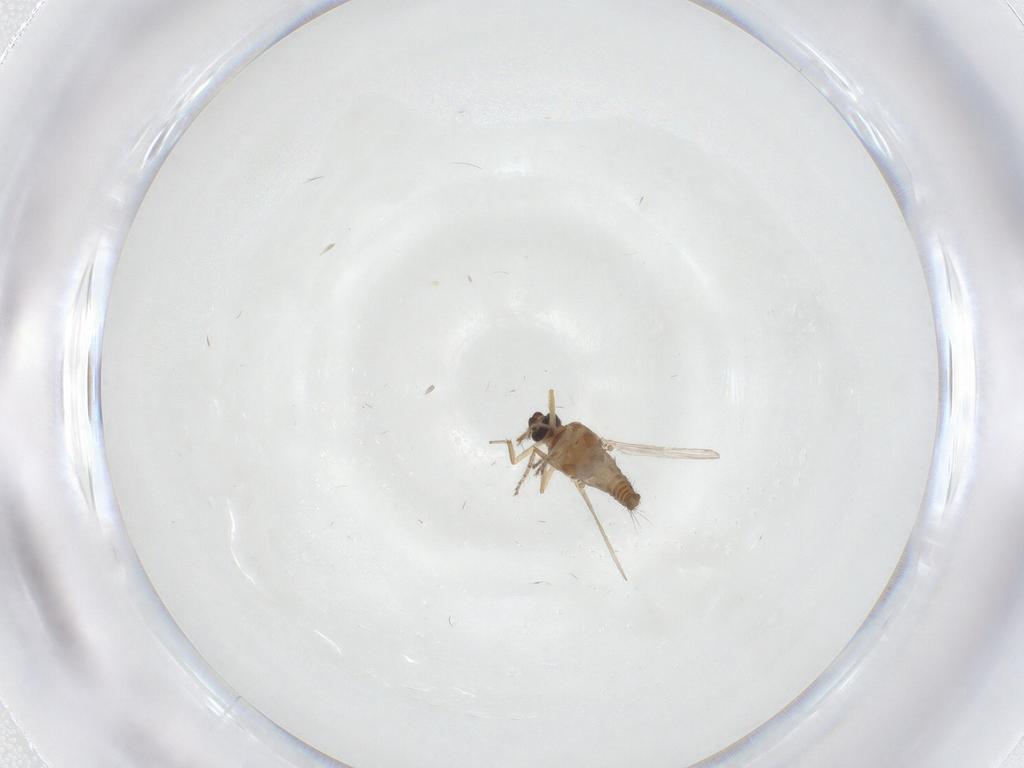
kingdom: Animalia
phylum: Arthropoda
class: Insecta
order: Diptera
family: Ceratopogonidae
